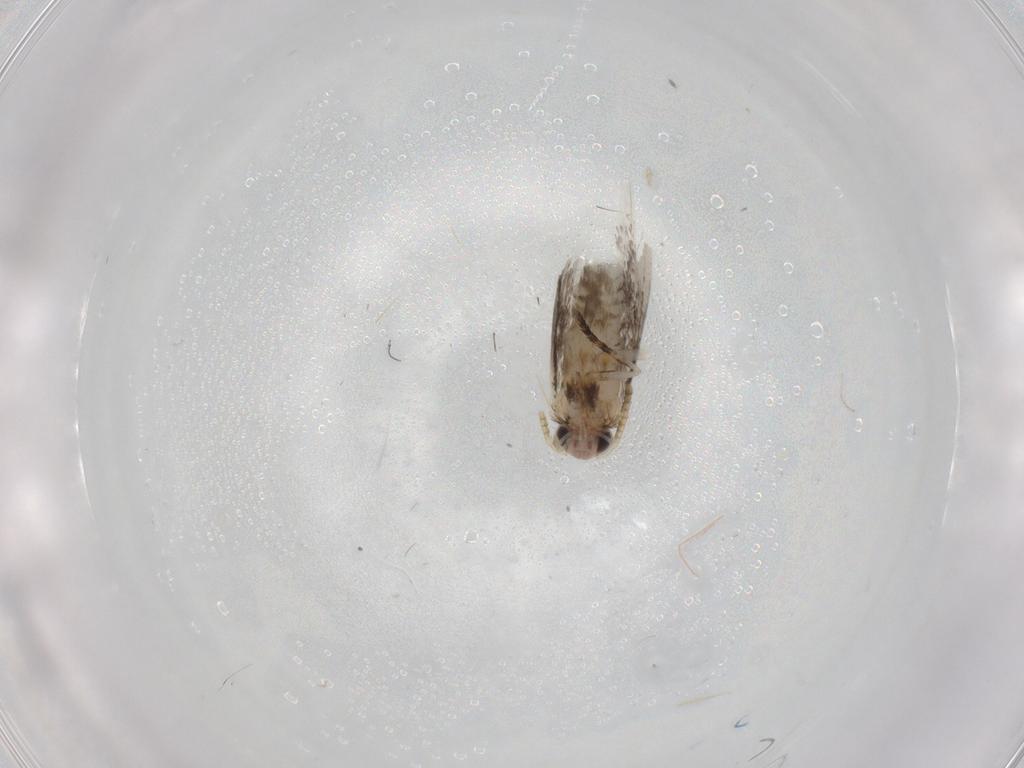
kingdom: Animalia
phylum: Arthropoda
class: Insecta
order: Lepidoptera
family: Tineidae
